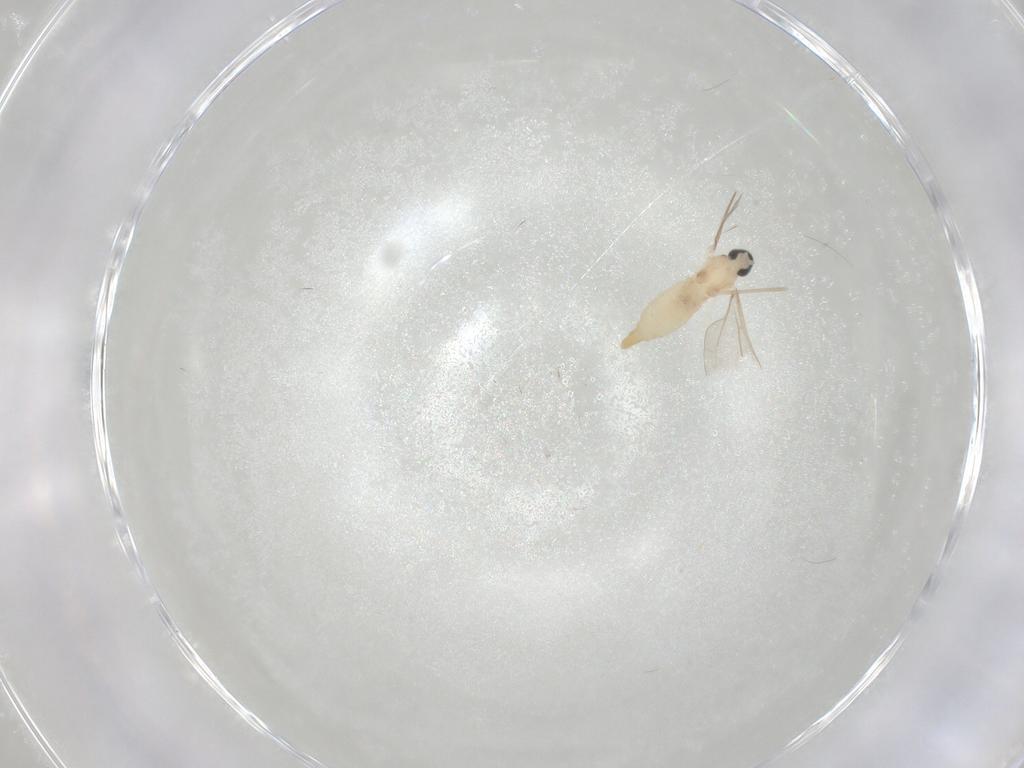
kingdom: Animalia
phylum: Arthropoda
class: Insecta
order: Diptera
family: Cecidomyiidae
